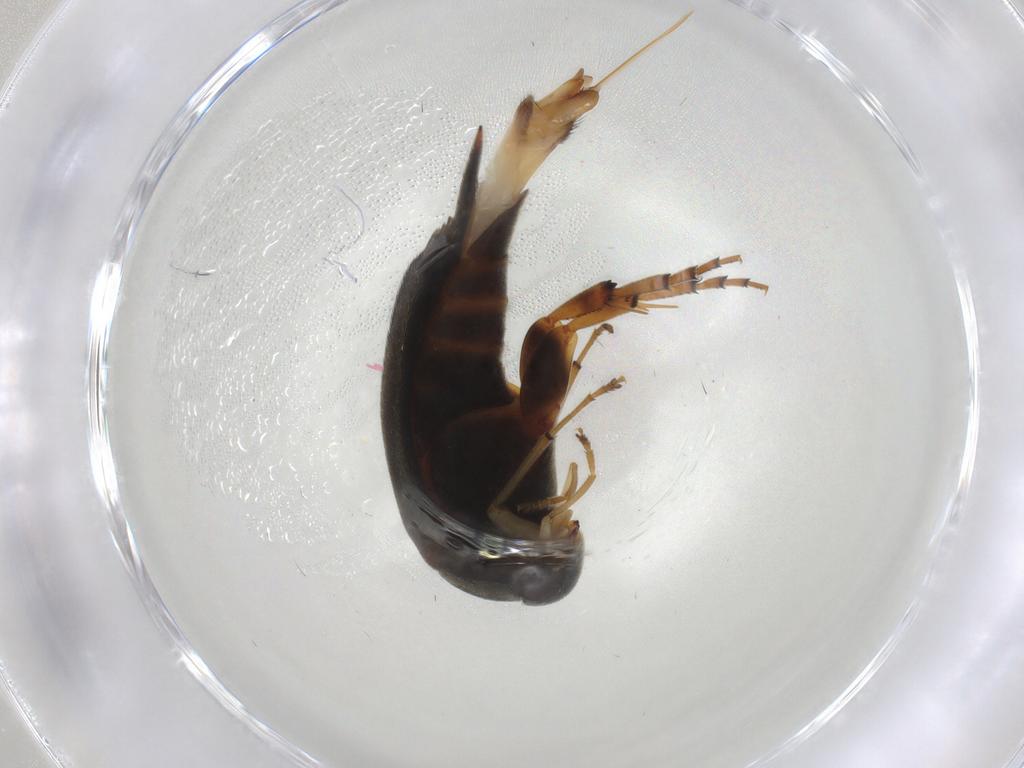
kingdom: Animalia
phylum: Arthropoda
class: Insecta
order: Coleoptera
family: Mordellidae
